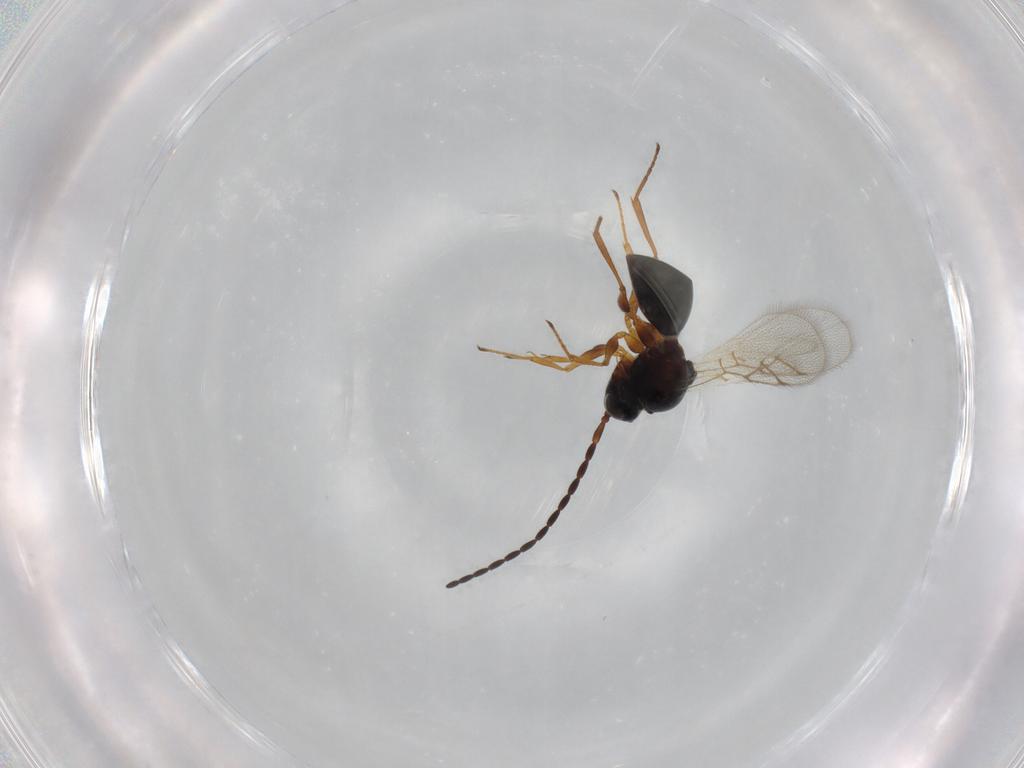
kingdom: Animalia
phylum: Arthropoda
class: Insecta
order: Hymenoptera
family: Figitidae
